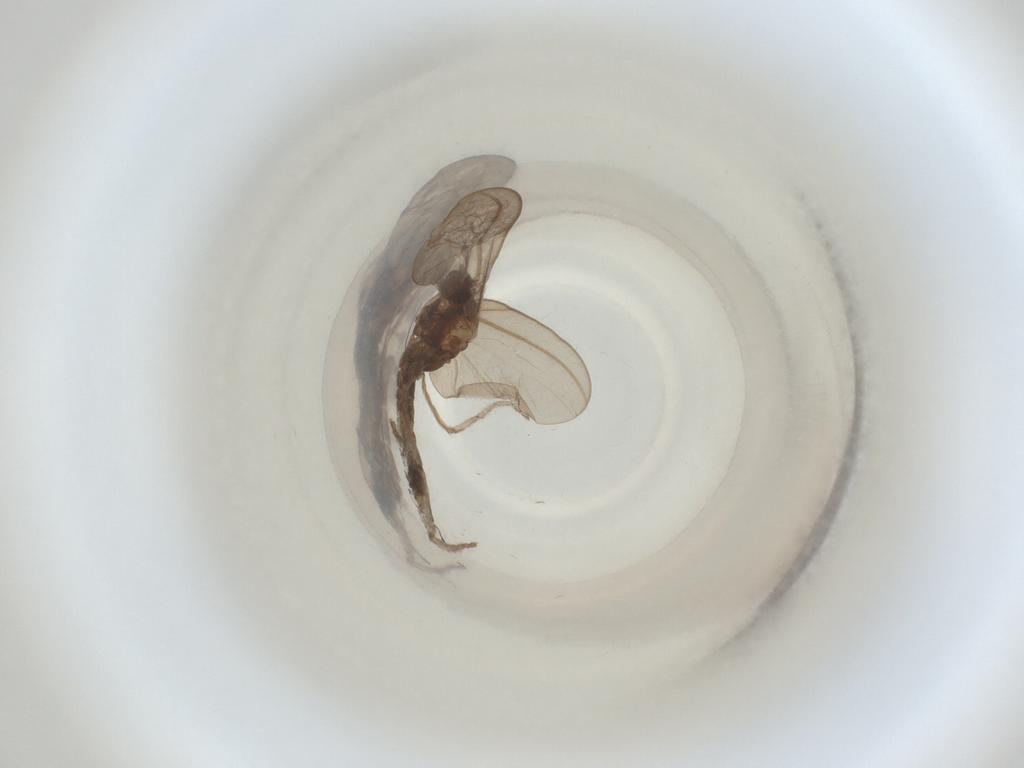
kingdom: Animalia
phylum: Arthropoda
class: Insecta
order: Diptera
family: Cecidomyiidae
